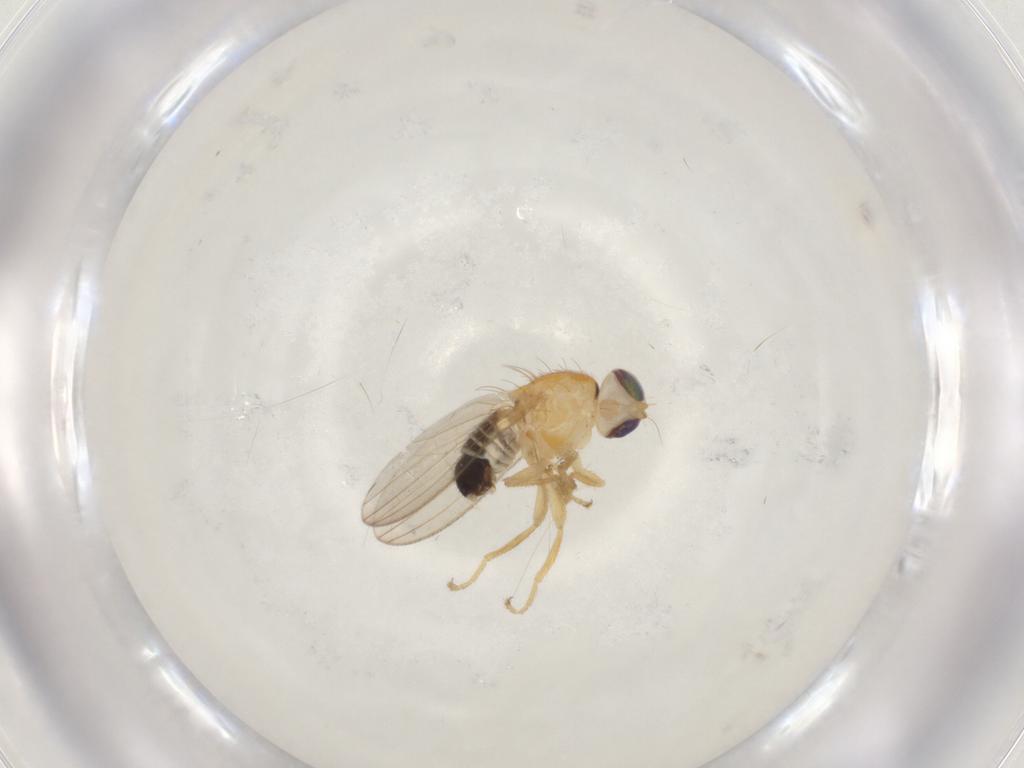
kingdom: Animalia
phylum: Arthropoda
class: Insecta
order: Diptera
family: Chyromyidae
